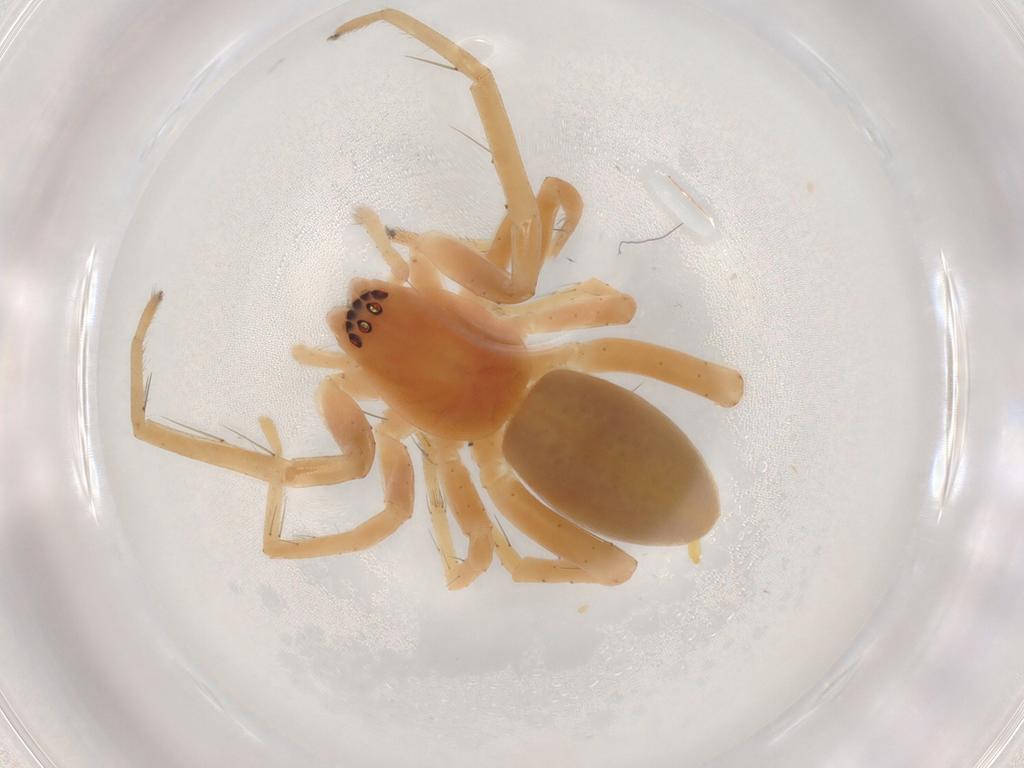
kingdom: Animalia
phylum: Arthropoda
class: Arachnida
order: Araneae
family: Anyphaenidae
